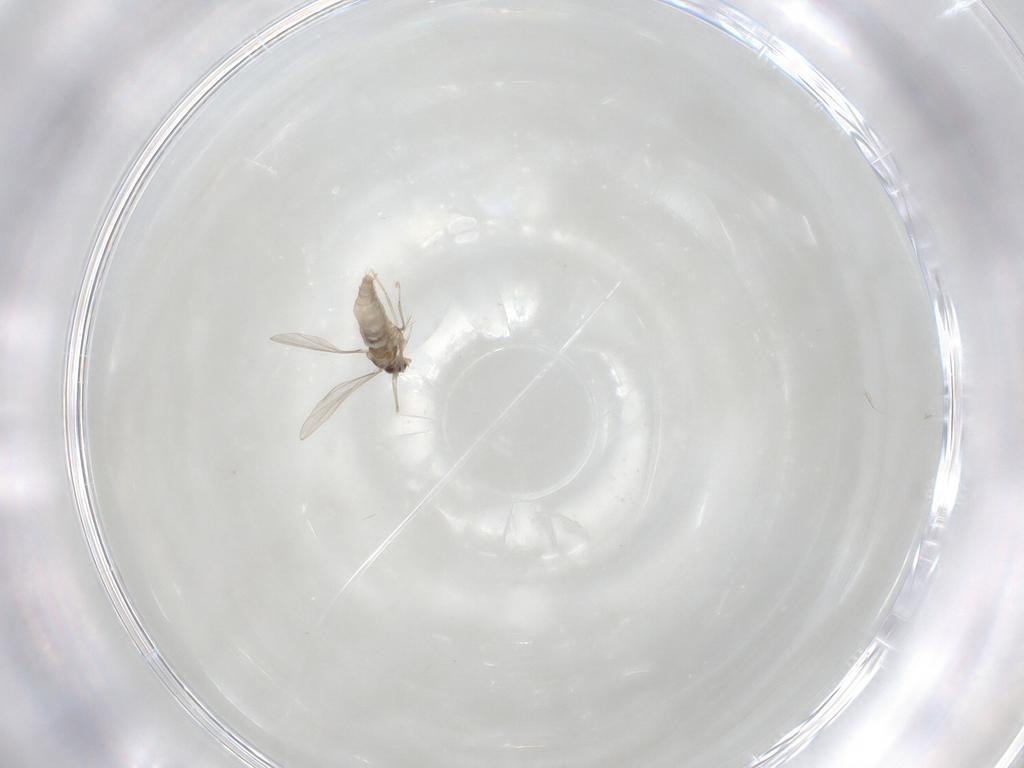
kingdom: Animalia
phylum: Arthropoda
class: Insecta
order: Diptera
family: Cecidomyiidae
